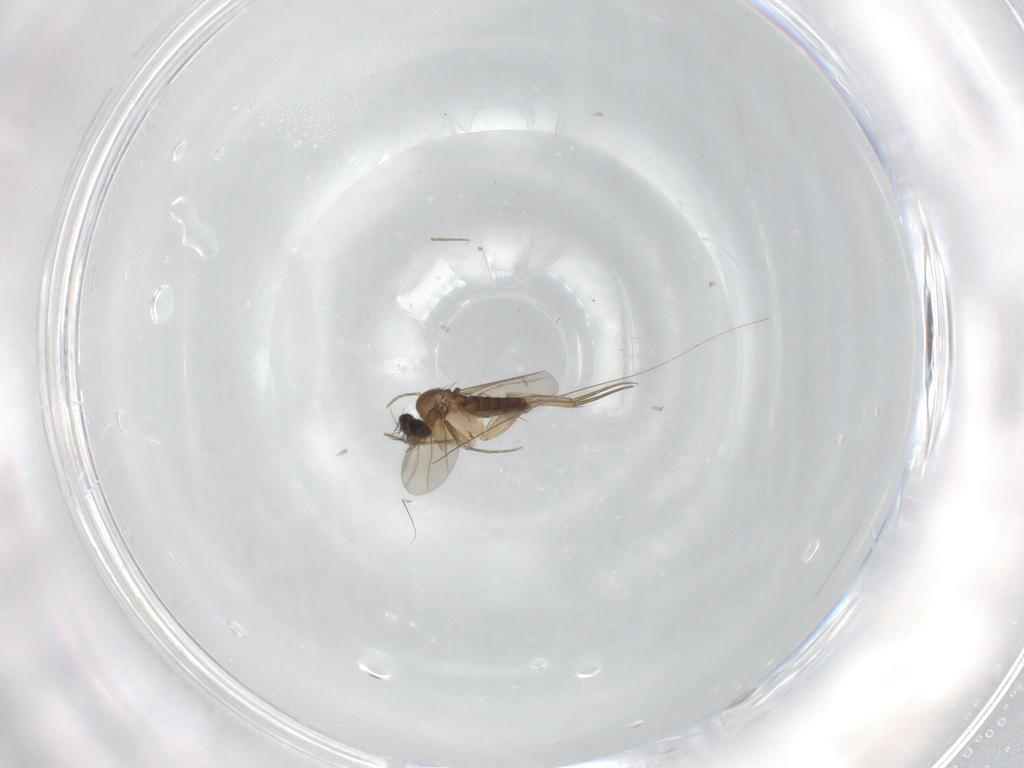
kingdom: Animalia
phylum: Arthropoda
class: Insecta
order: Diptera
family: Phoridae
